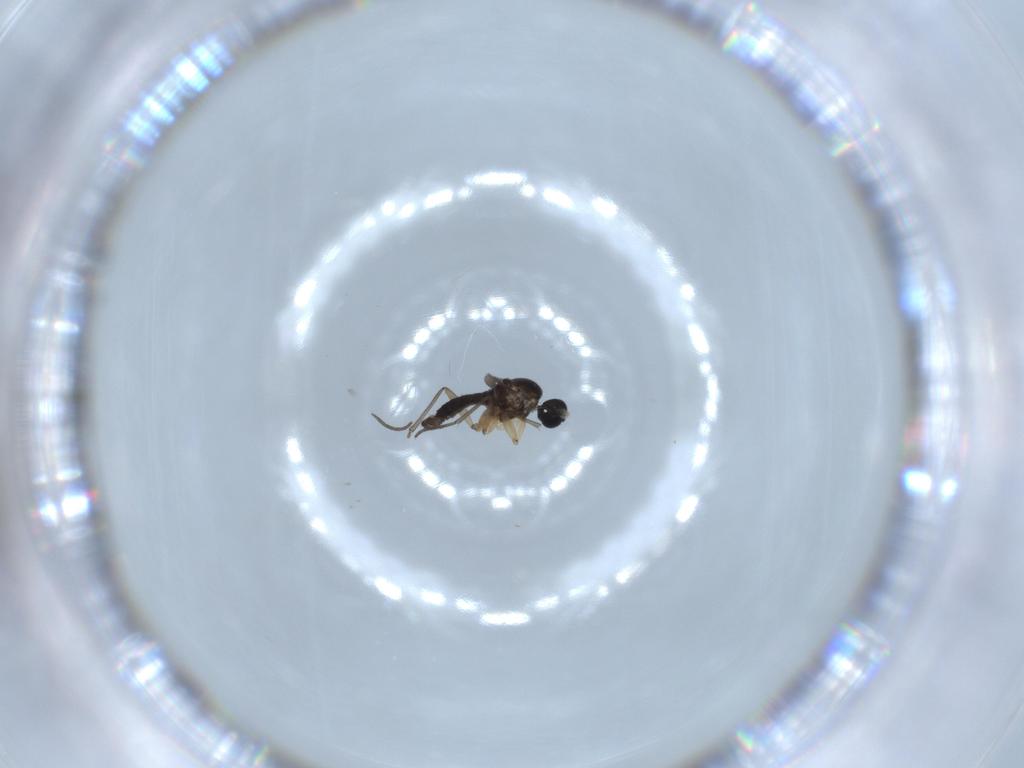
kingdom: Animalia
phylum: Arthropoda
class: Insecta
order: Diptera
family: Sciaridae
